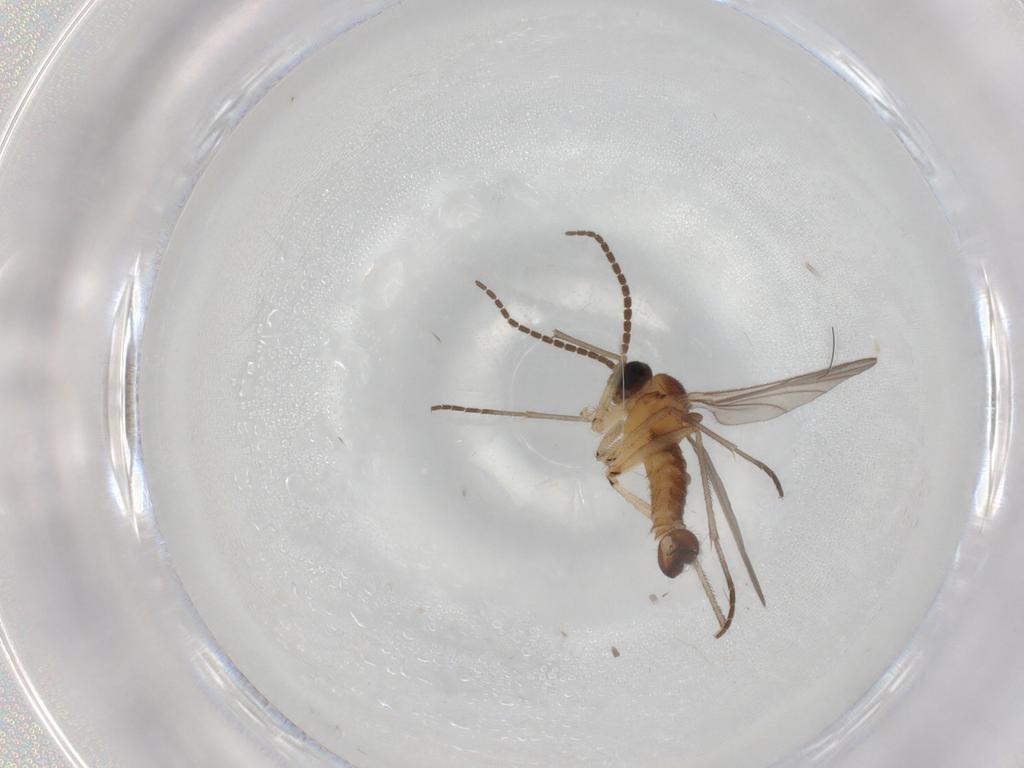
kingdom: Animalia
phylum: Arthropoda
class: Insecta
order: Diptera
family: Sciaridae
